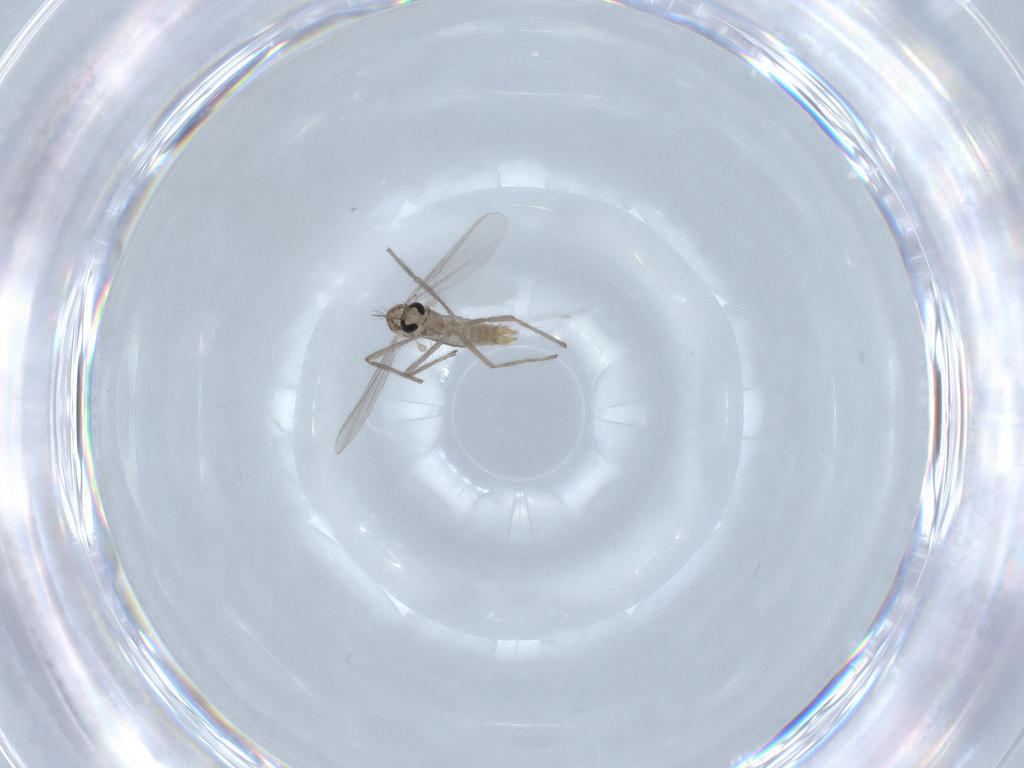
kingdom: Animalia
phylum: Arthropoda
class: Insecta
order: Diptera
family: Chironomidae
